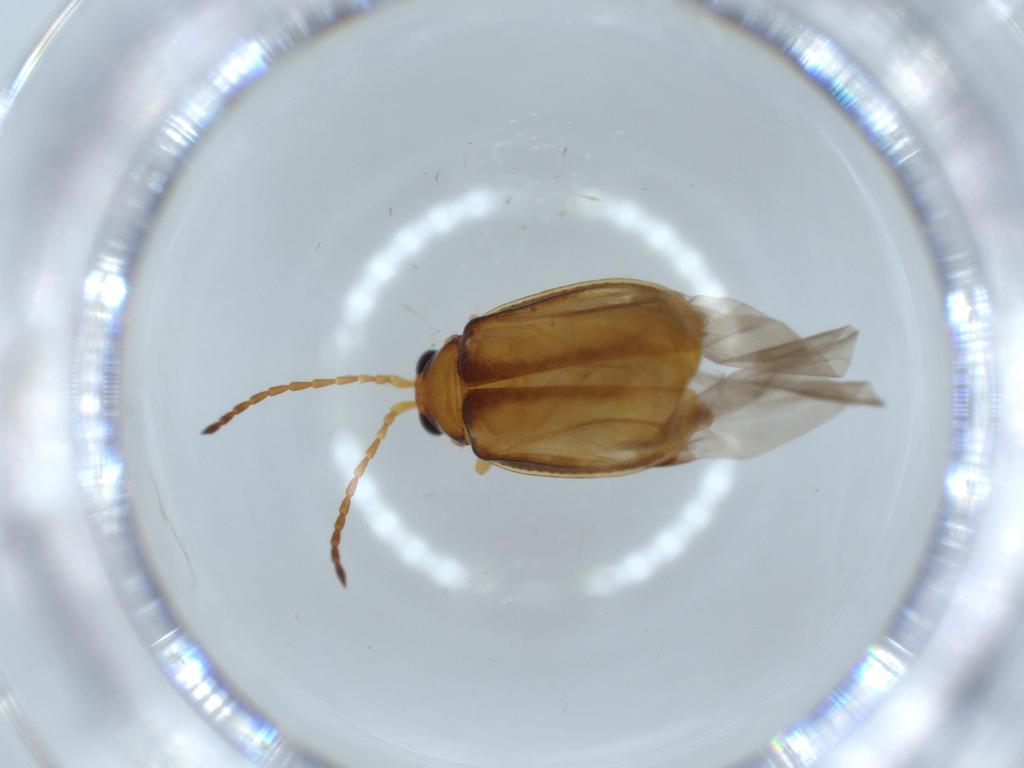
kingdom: Animalia
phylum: Arthropoda
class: Insecta
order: Coleoptera
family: Chrysomelidae
